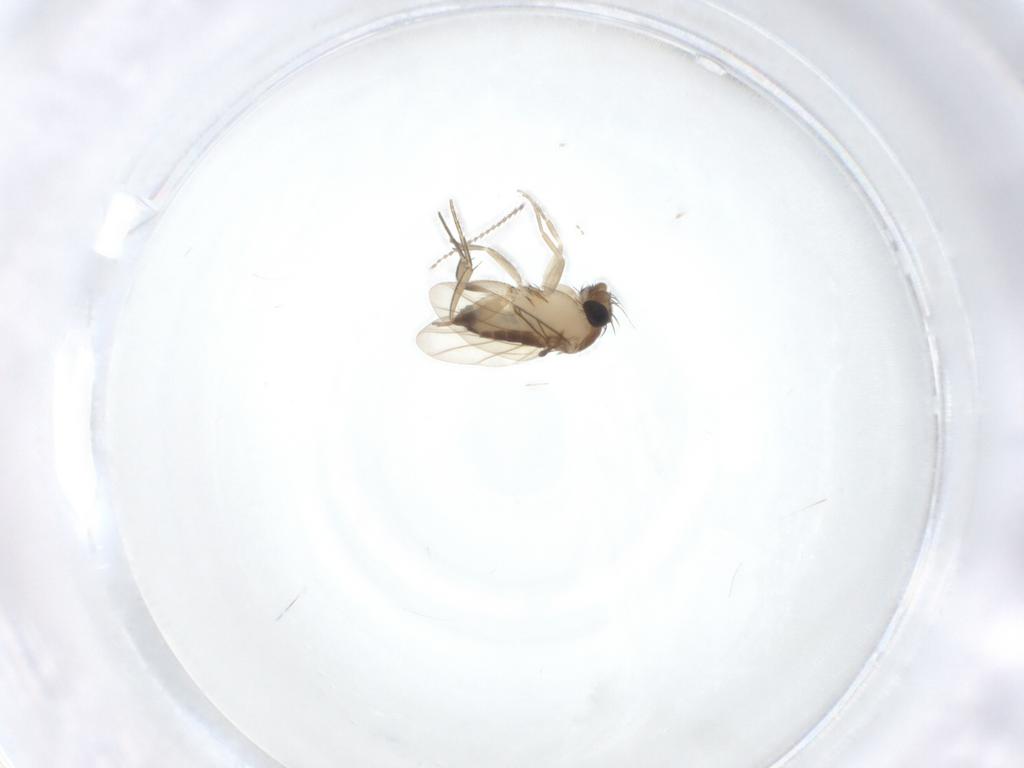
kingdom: Animalia
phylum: Arthropoda
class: Insecta
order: Diptera
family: Phoridae
